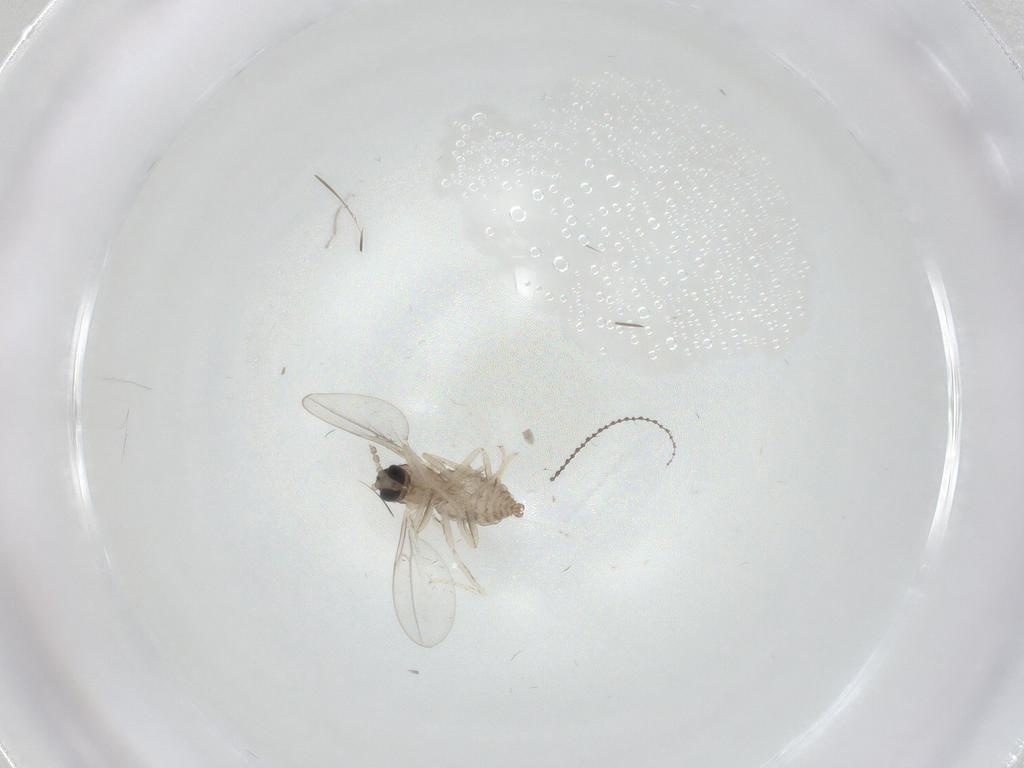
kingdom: Animalia
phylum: Arthropoda
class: Insecta
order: Diptera
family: Cecidomyiidae
